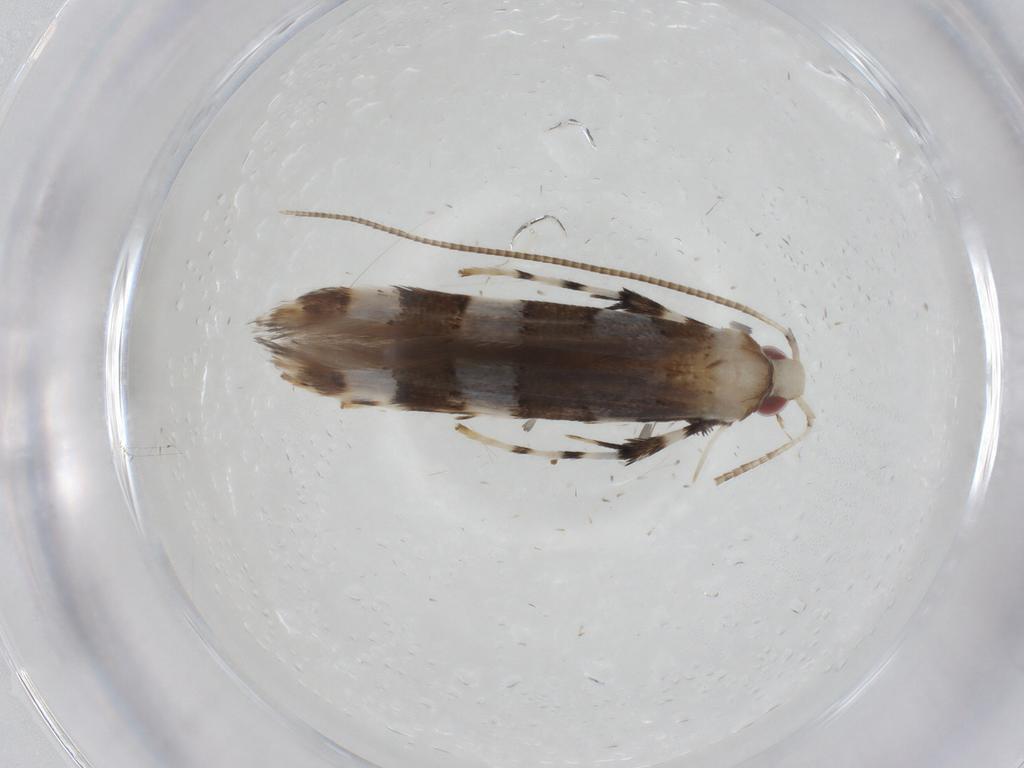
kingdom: Animalia
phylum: Arthropoda
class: Insecta
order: Lepidoptera
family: Gracillariidae
